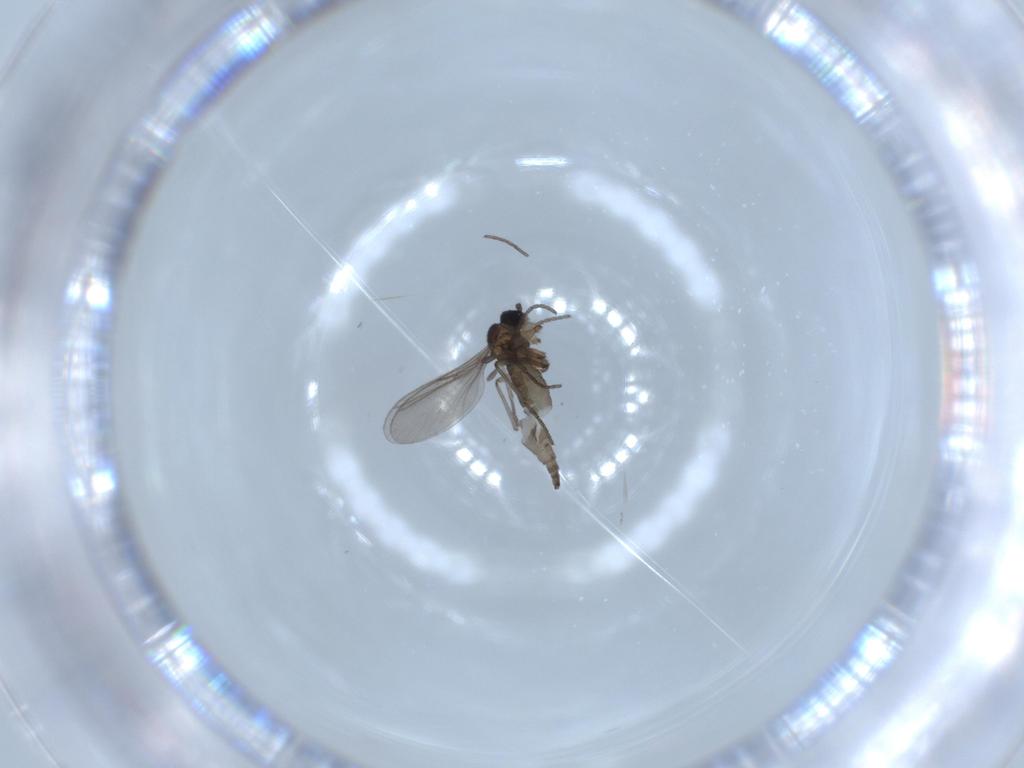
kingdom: Animalia
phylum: Arthropoda
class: Insecta
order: Diptera
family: Cecidomyiidae
